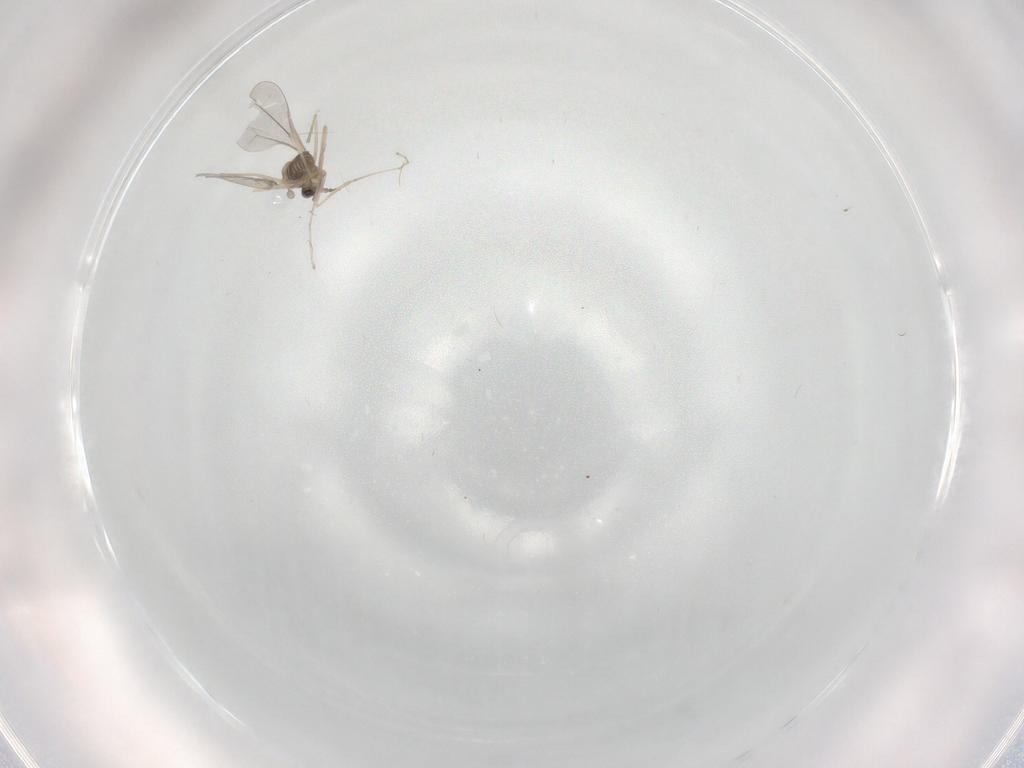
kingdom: Animalia
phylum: Arthropoda
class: Insecta
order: Diptera
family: Cecidomyiidae
